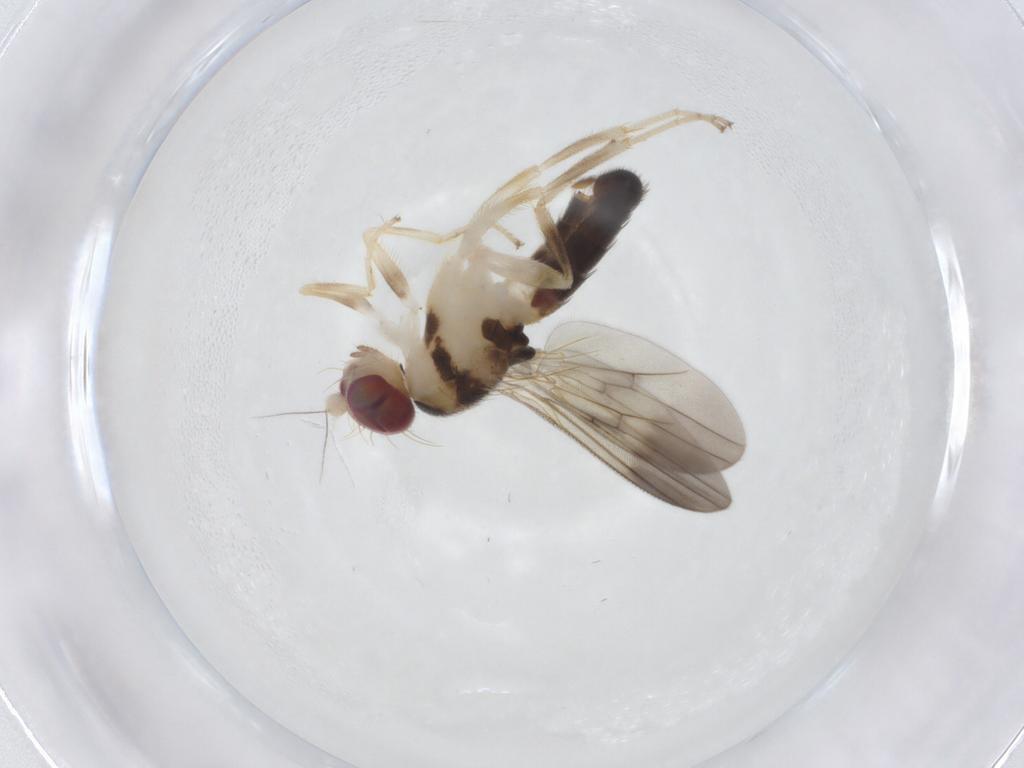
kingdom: Animalia
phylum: Arthropoda
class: Insecta
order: Diptera
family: Clusiidae
